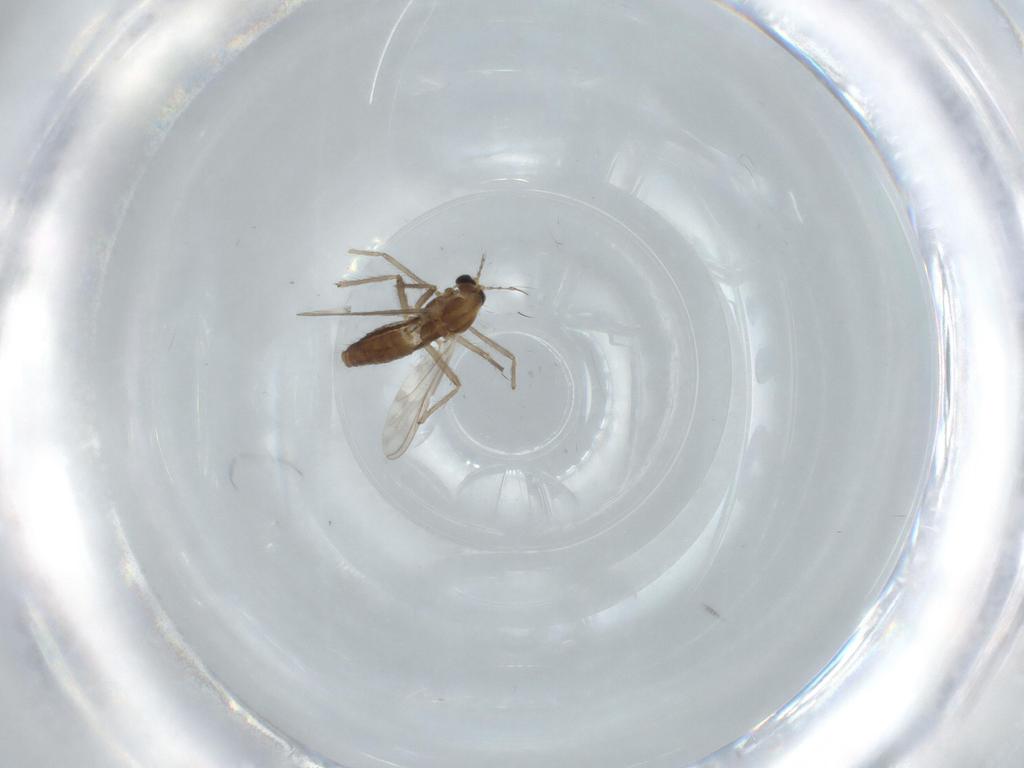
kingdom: Animalia
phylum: Arthropoda
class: Insecta
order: Diptera
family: Chironomidae
